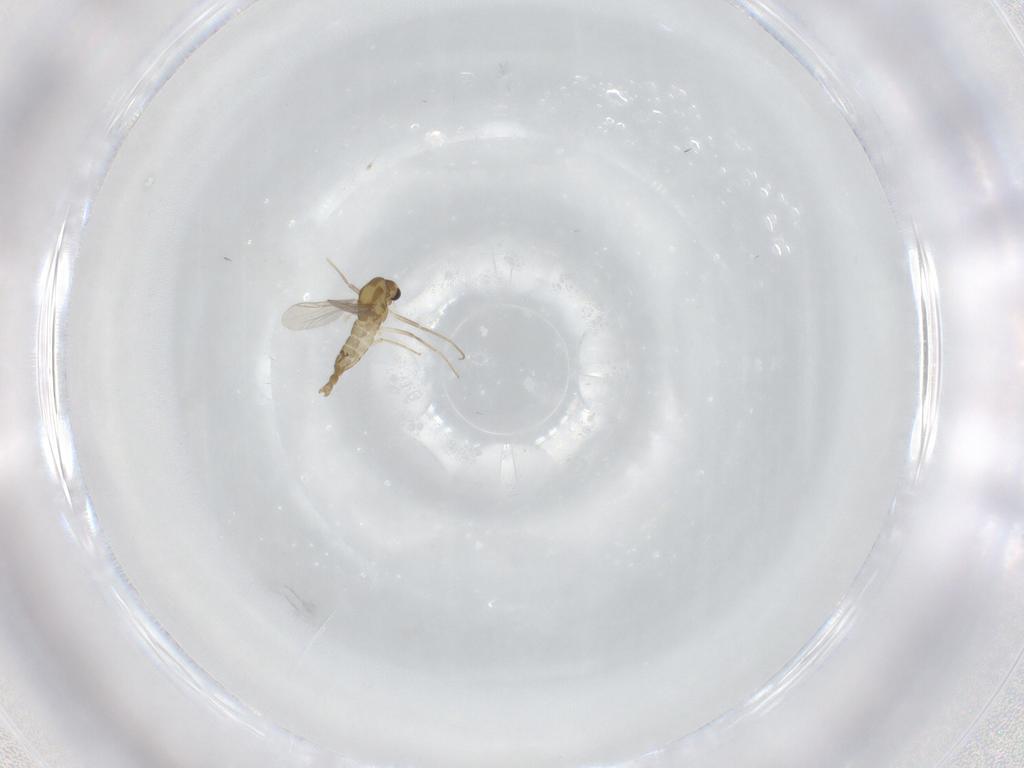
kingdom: Animalia
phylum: Arthropoda
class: Insecta
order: Diptera
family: Chironomidae
